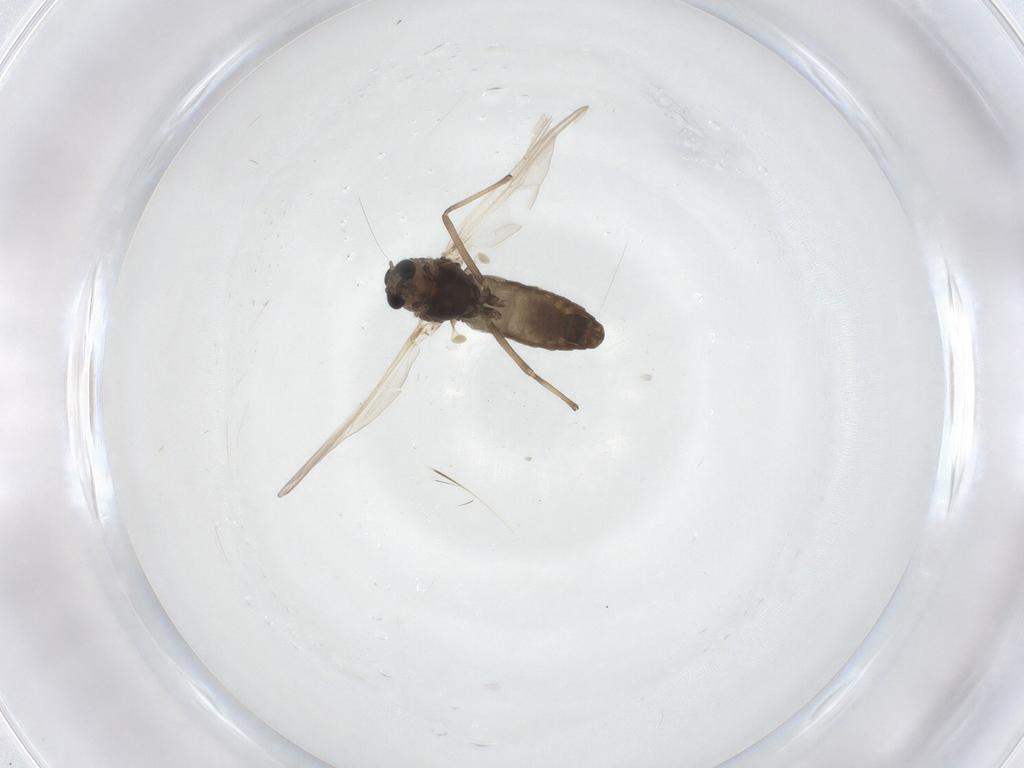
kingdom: Animalia
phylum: Arthropoda
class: Insecta
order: Diptera
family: Chironomidae
